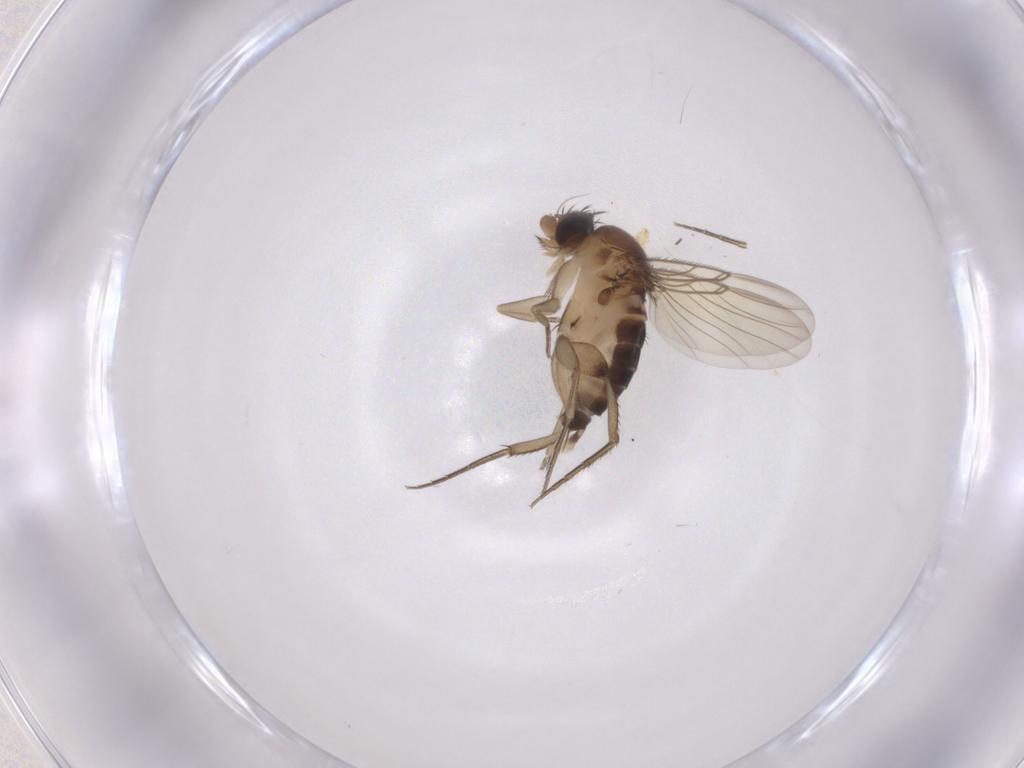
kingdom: Animalia
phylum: Arthropoda
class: Insecta
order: Diptera
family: Phoridae
